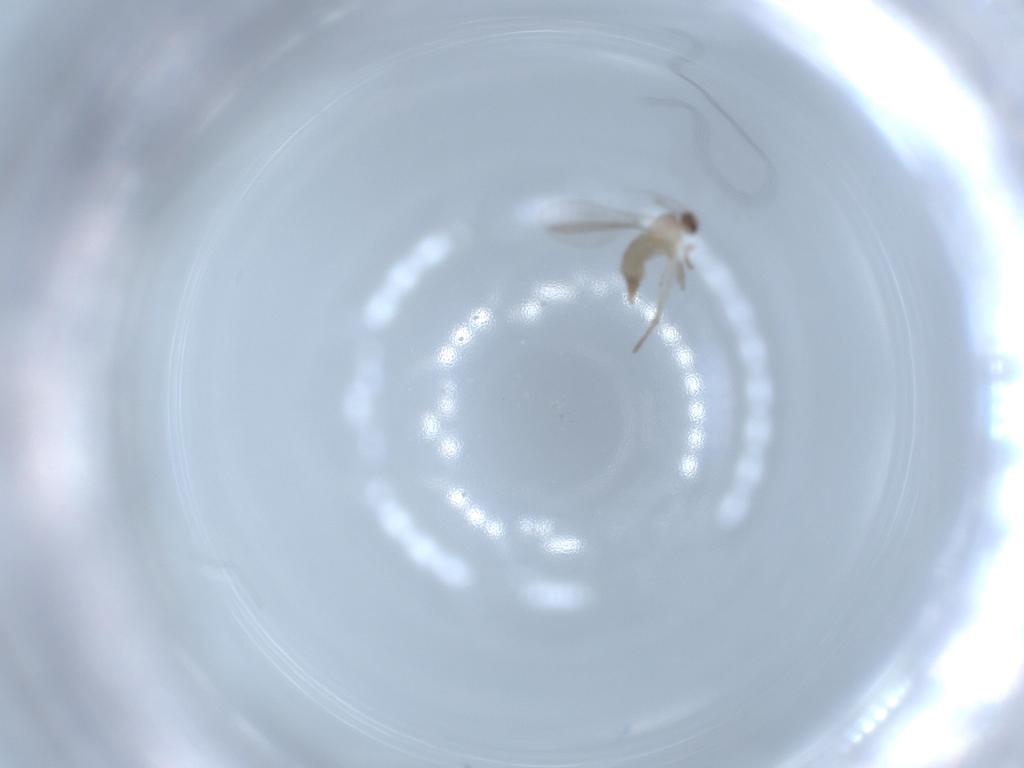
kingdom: Animalia
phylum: Arthropoda
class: Insecta
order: Diptera
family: Cecidomyiidae
